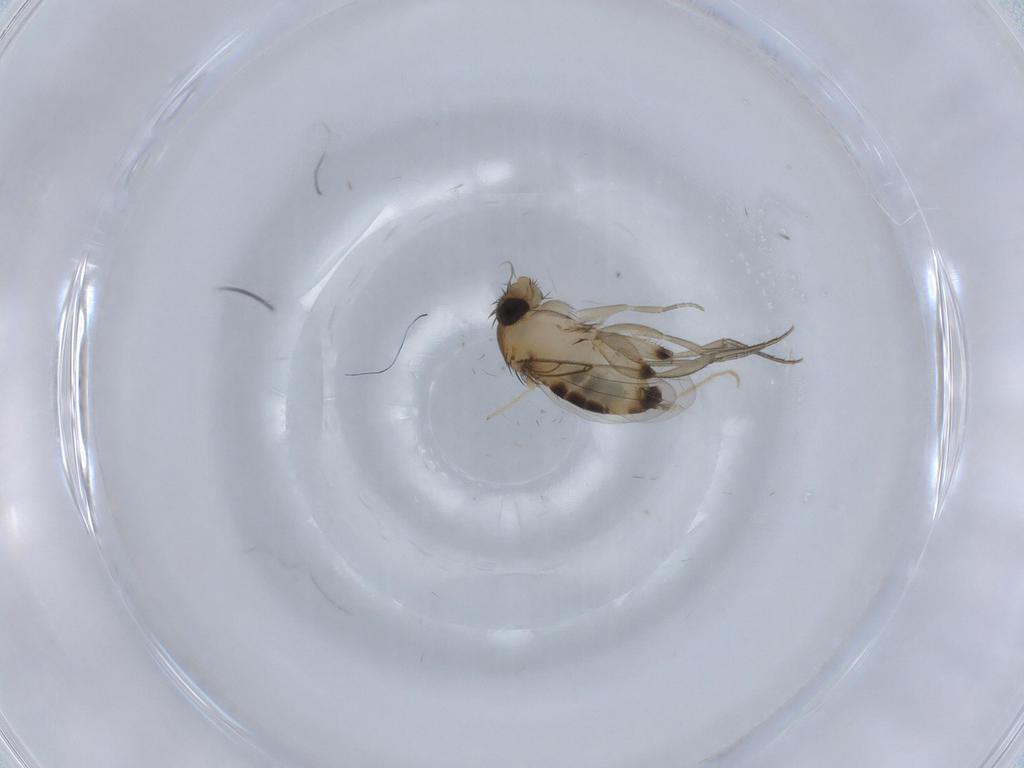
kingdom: Animalia
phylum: Arthropoda
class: Insecta
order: Diptera
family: Phoridae
